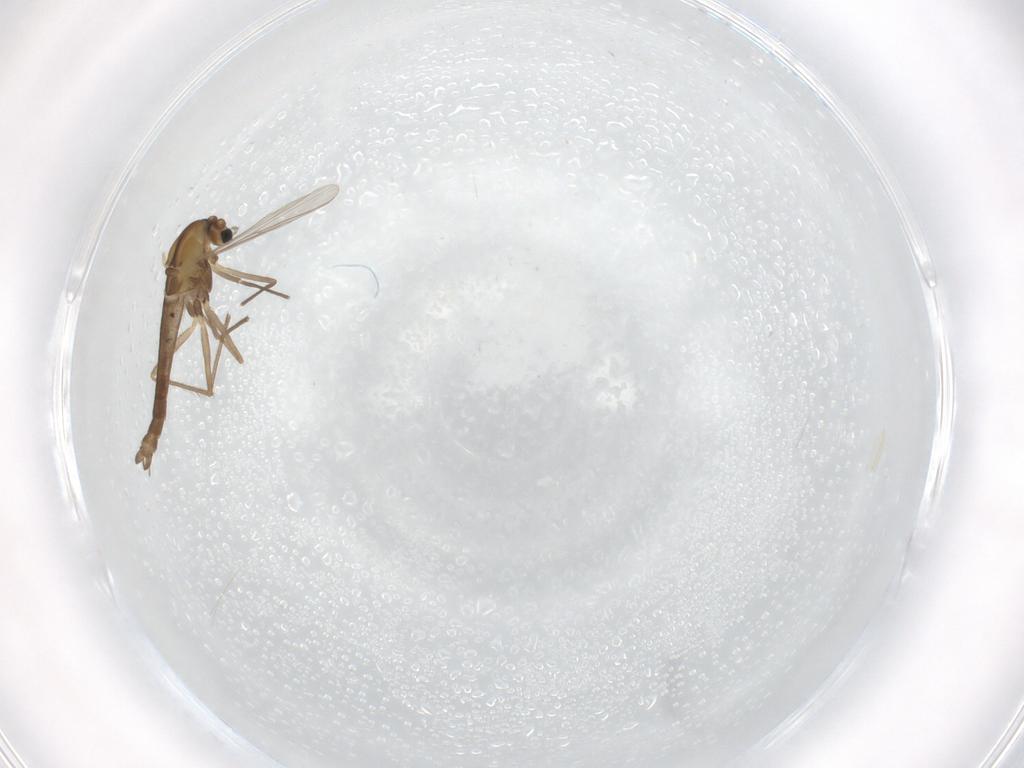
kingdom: Animalia
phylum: Arthropoda
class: Insecta
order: Diptera
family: Chironomidae
